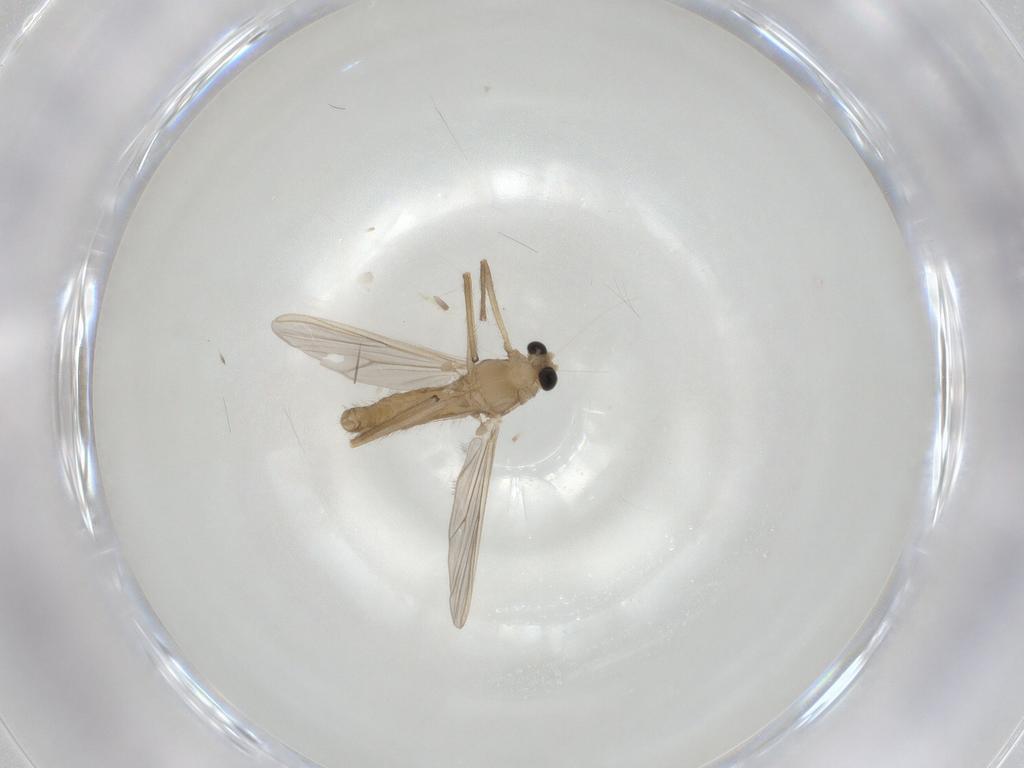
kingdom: Animalia
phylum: Arthropoda
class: Insecta
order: Diptera
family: Chironomidae
